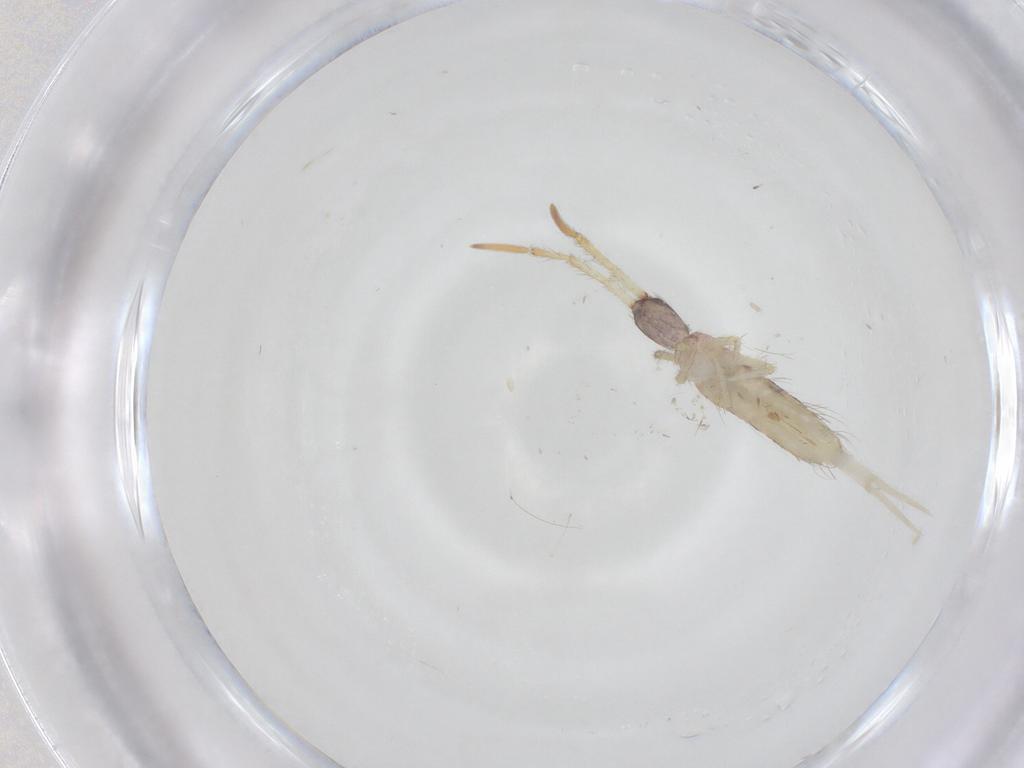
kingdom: Animalia
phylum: Arthropoda
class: Collembola
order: Entomobryomorpha
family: Entomobryidae
